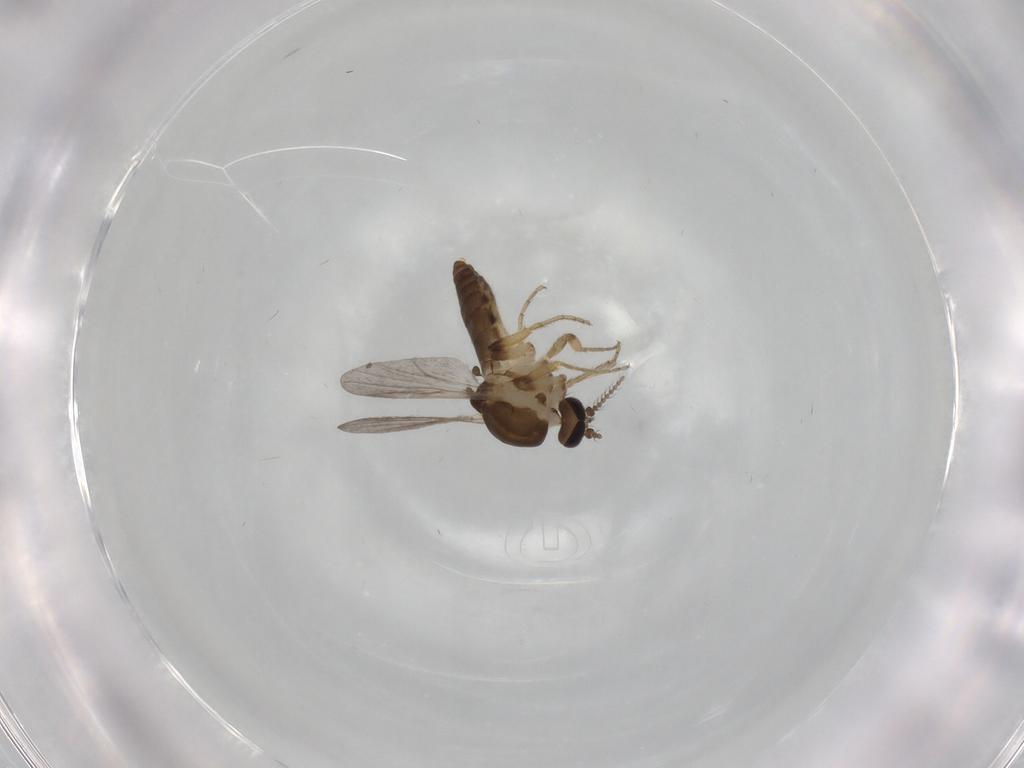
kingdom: Animalia
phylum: Arthropoda
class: Insecta
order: Diptera
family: Ceratopogonidae
